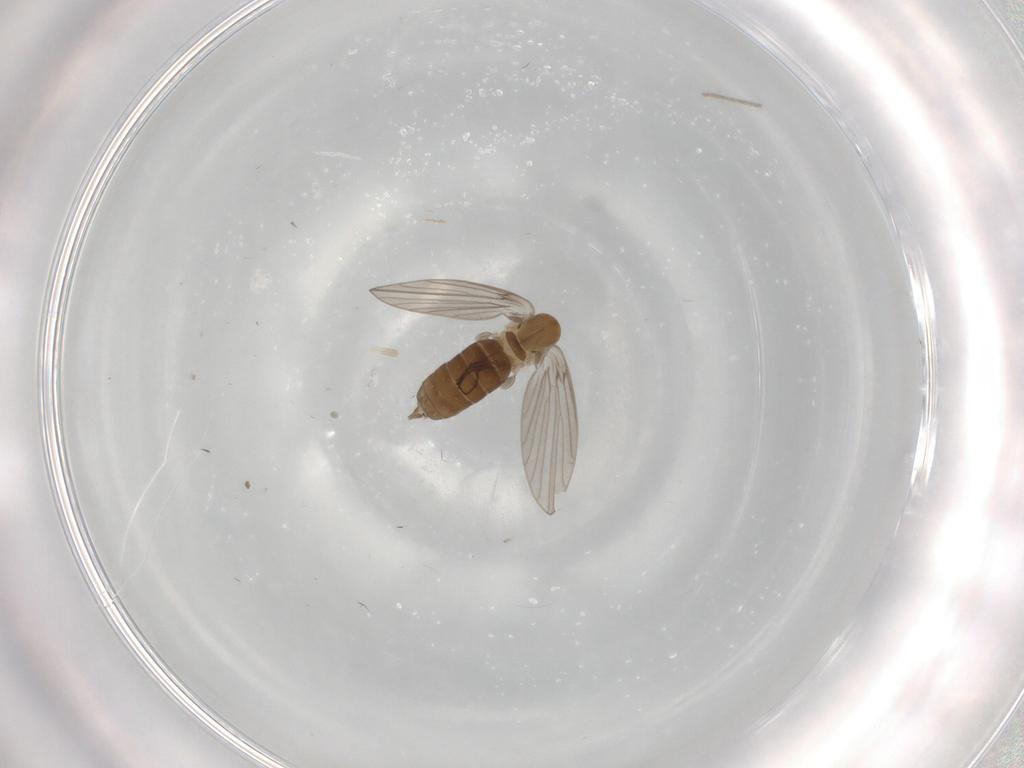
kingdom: Animalia
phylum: Arthropoda
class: Insecta
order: Diptera
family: Psychodidae
